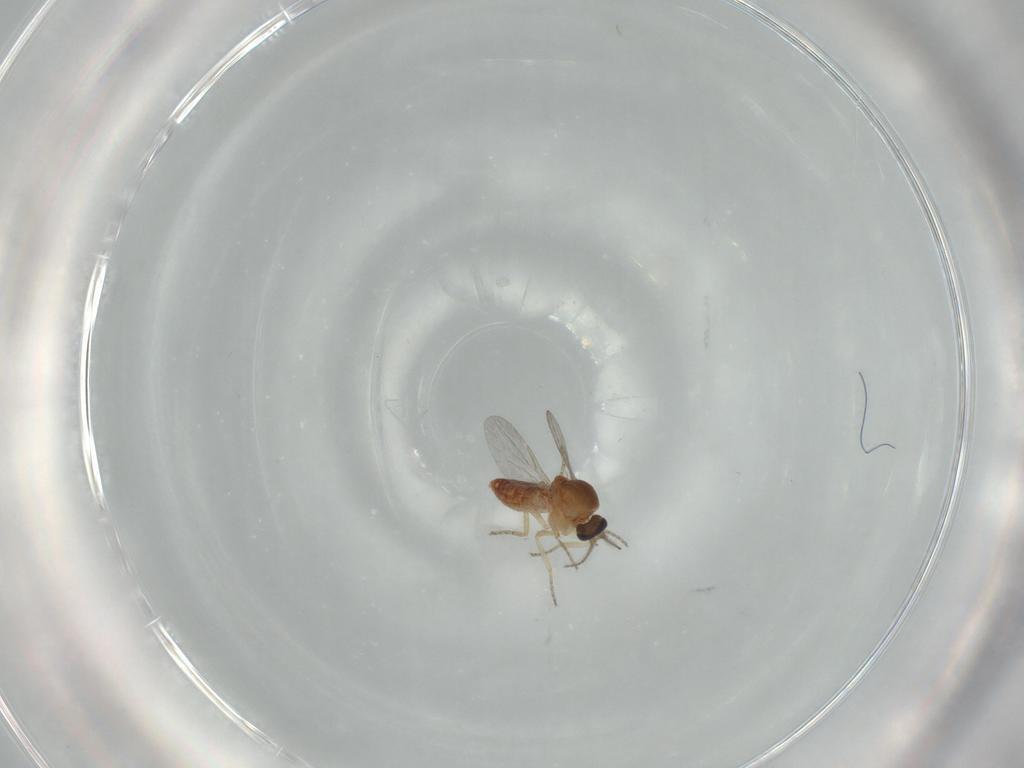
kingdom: Animalia
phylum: Arthropoda
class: Insecta
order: Diptera
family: Ceratopogonidae
